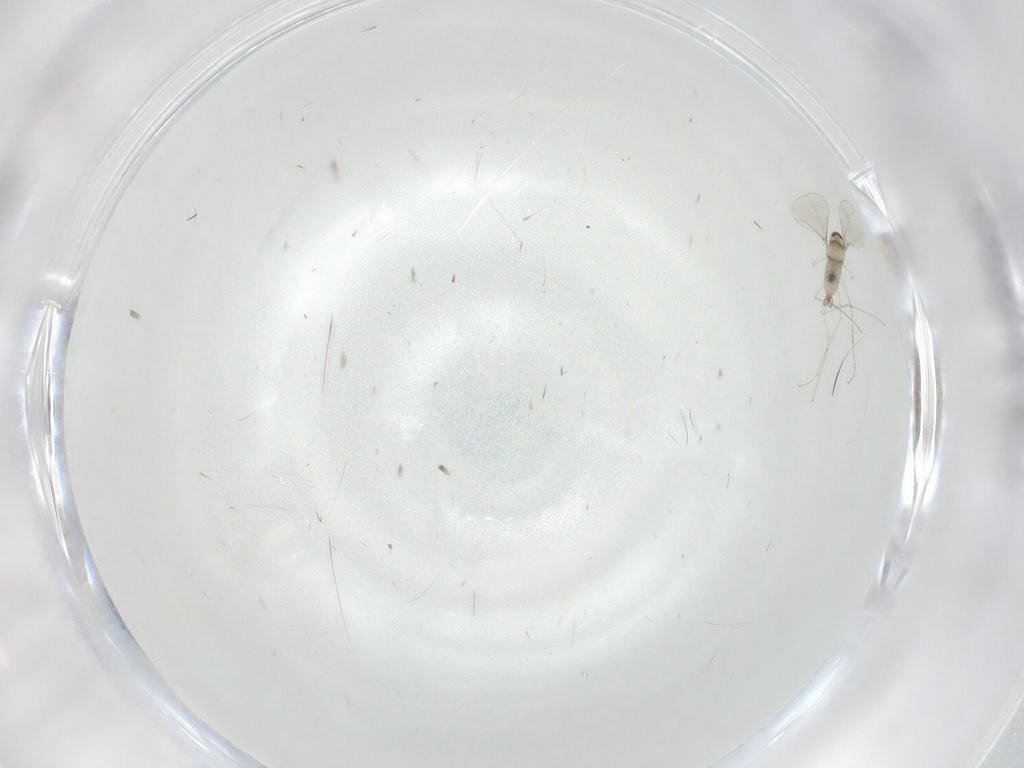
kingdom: Animalia
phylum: Arthropoda
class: Insecta
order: Diptera
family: Cecidomyiidae
